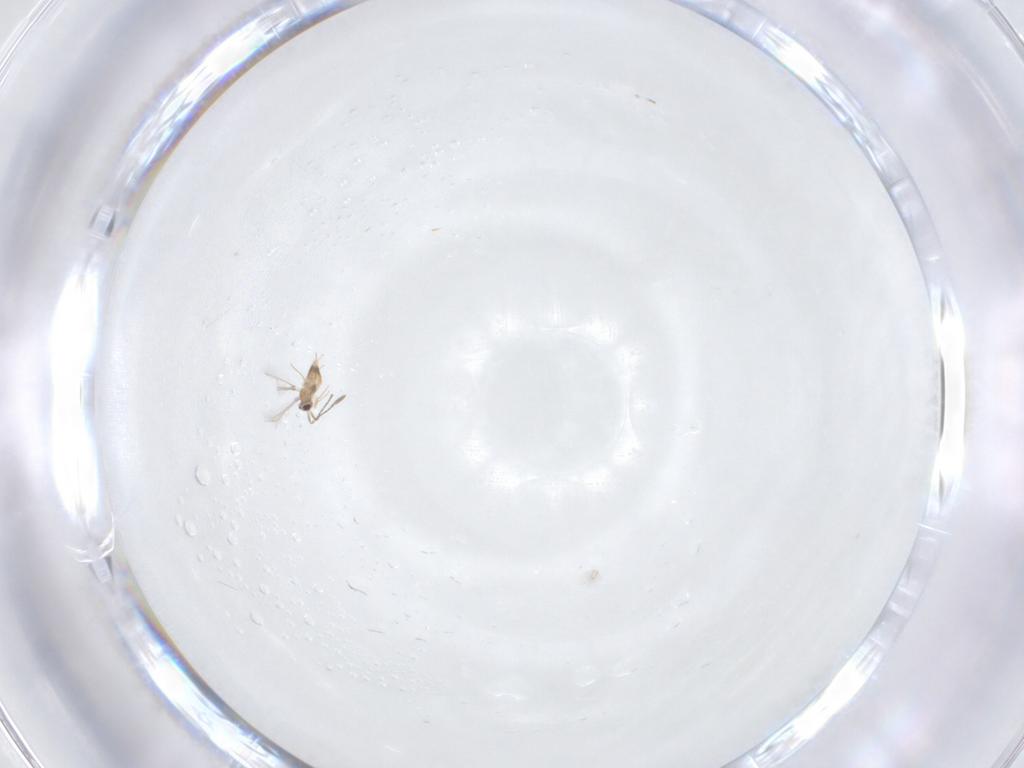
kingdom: Animalia
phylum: Arthropoda
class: Insecta
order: Hymenoptera
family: Mymaridae
